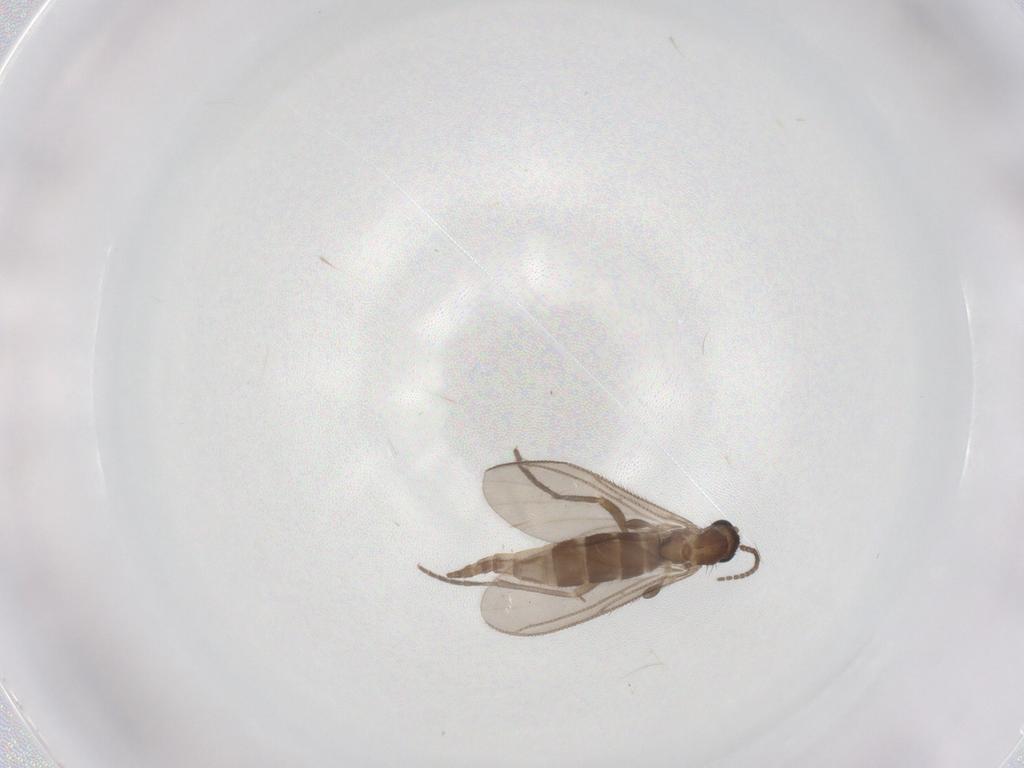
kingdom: Animalia
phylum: Arthropoda
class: Insecta
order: Diptera
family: Sciaridae
